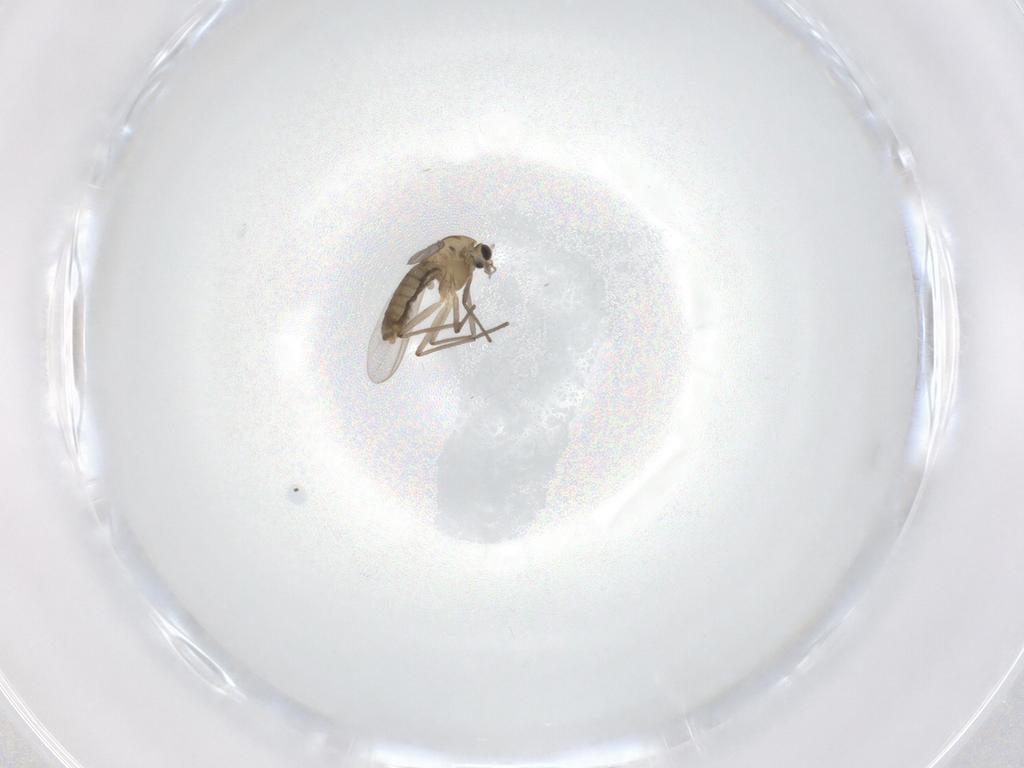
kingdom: Animalia
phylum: Arthropoda
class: Insecta
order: Diptera
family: Chironomidae
